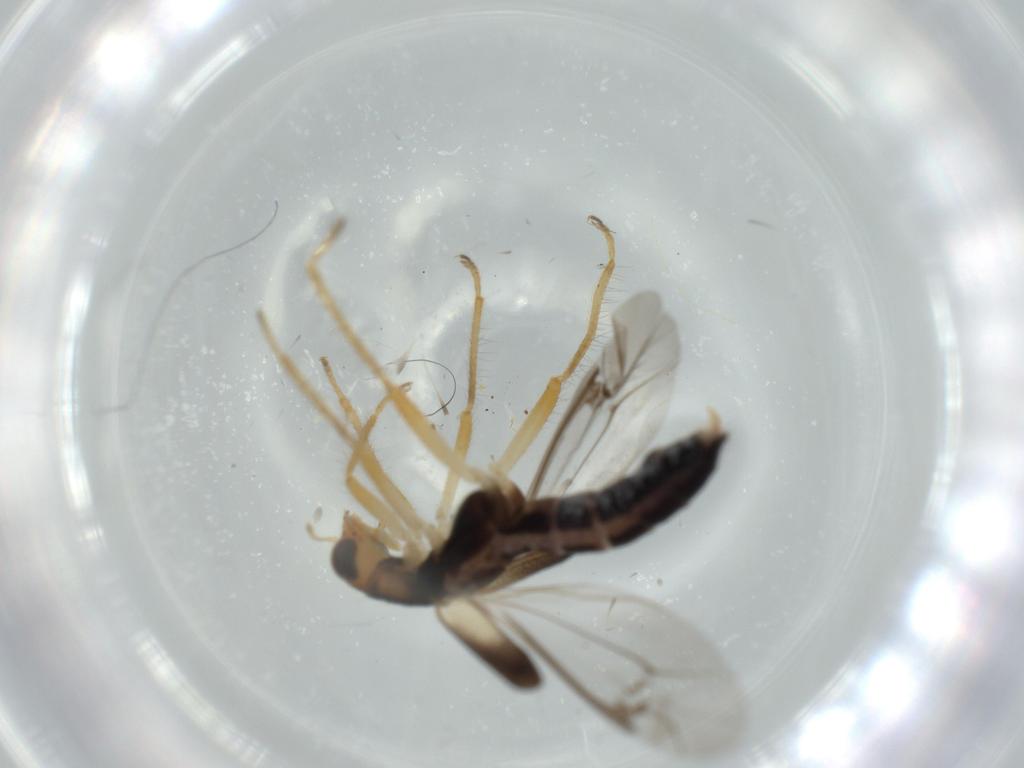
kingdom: Animalia
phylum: Arthropoda
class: Insecta
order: Coleoptera
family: Cleridae
